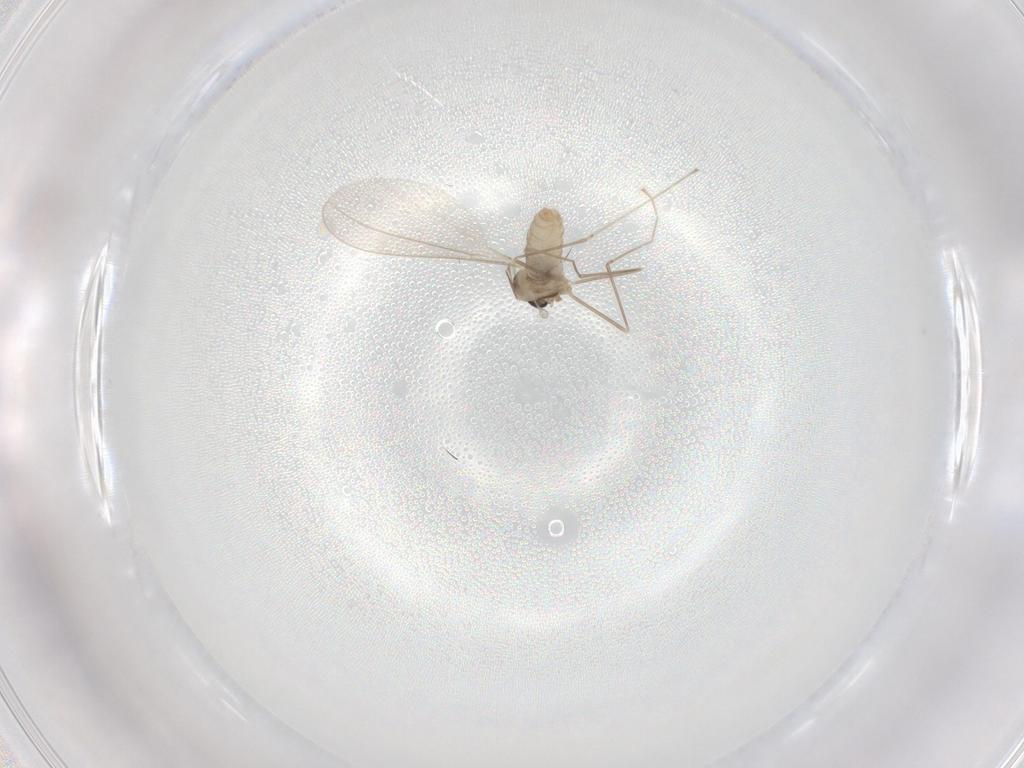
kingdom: Animalia
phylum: Arthropoda
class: Insecta
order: Diptera
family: Cecidomyiidae
